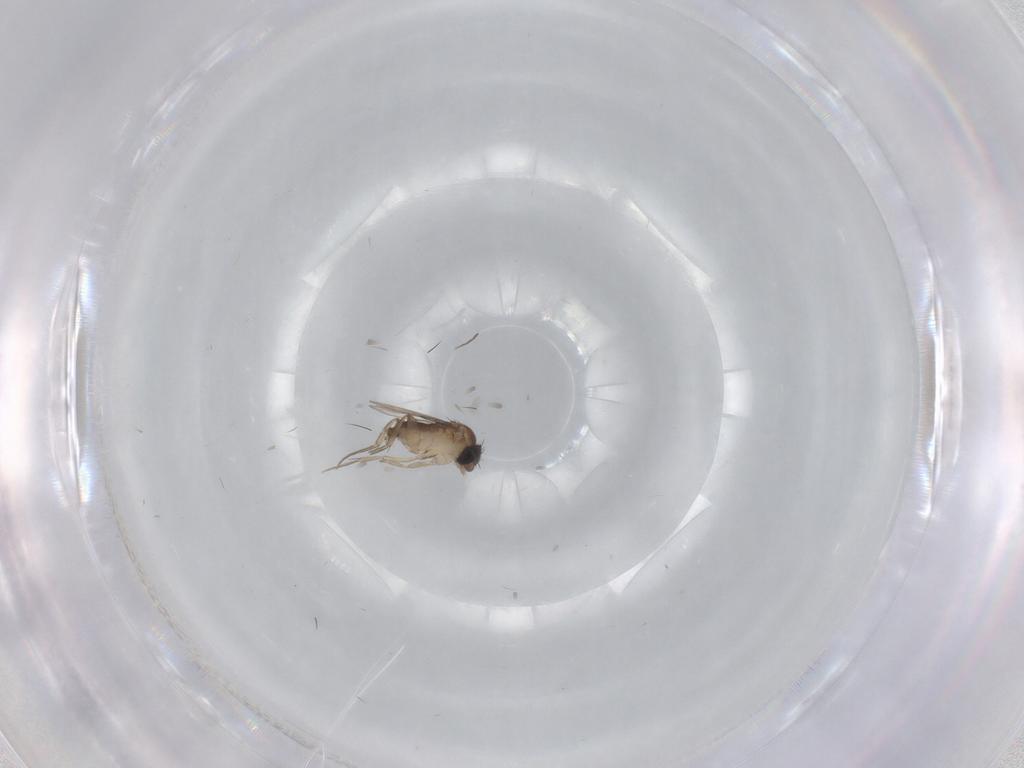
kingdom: Animalia
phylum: Arthropoda
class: Insecta
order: Diptera
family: Phoridae
